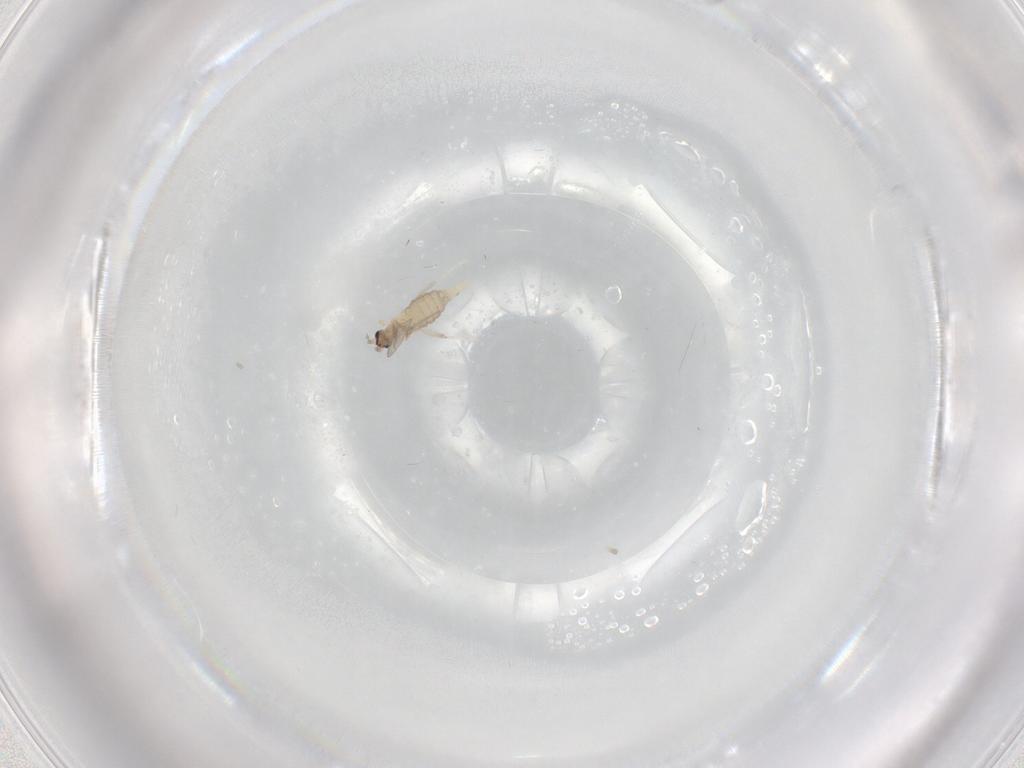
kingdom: Animalia
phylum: Arthropoda
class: Insecta
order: Diptera
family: Cecidomyiidae
